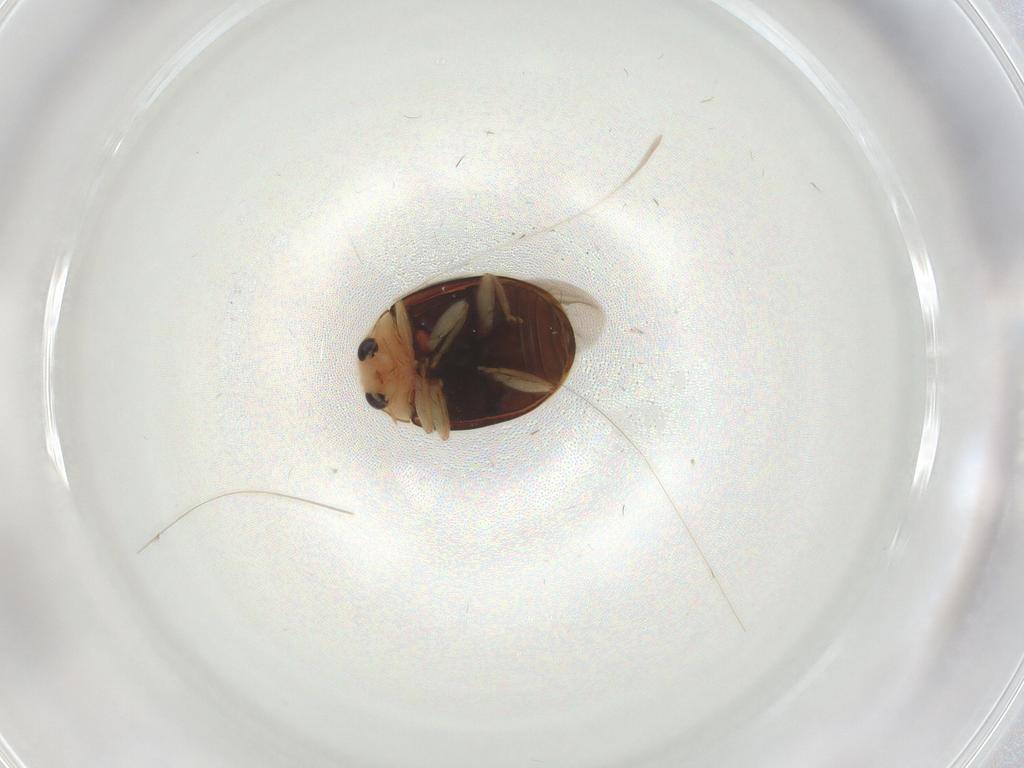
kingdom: Animalia
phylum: Arthropoda
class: Insecta
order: Coleoptera
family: Coccinellidae
